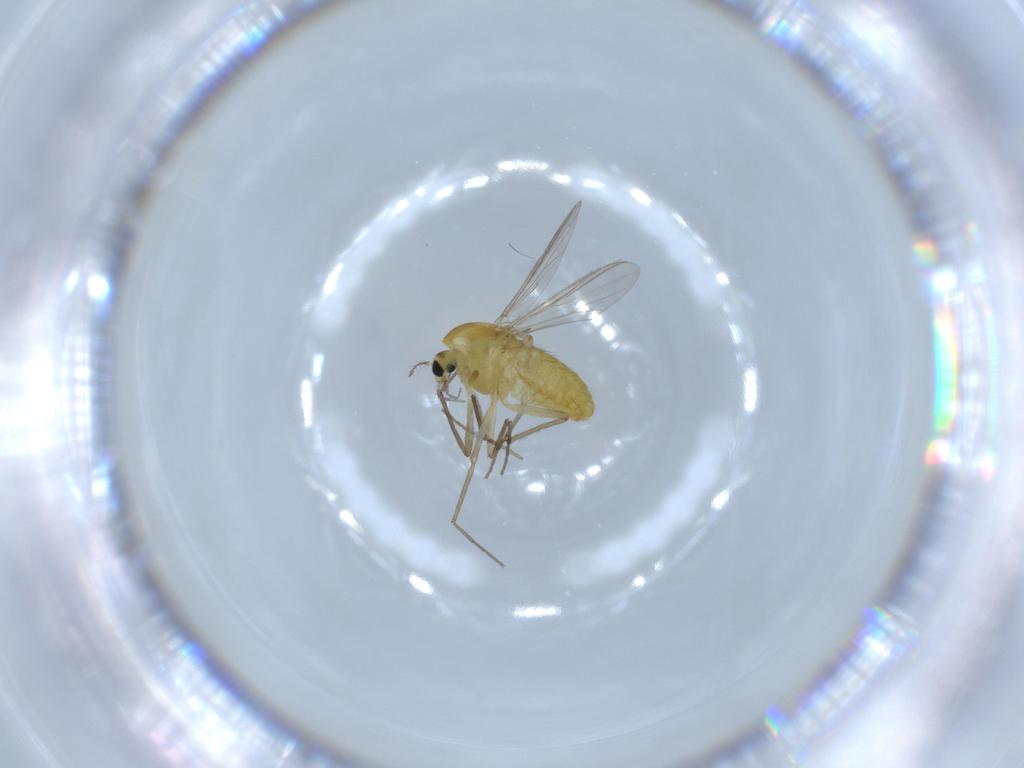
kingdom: Animalia
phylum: Arthropoda
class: Insecta
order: Diptera
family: Chironomidae
